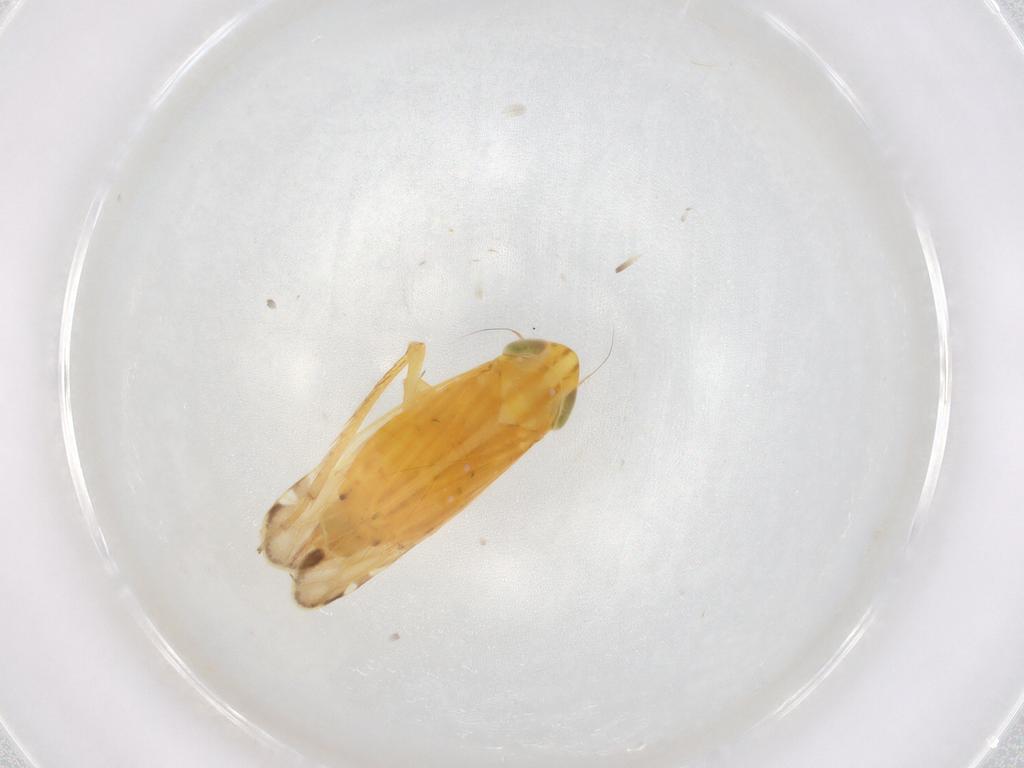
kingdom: Animalia
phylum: Arthropoda
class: Insecta
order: Hemiptera
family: Cicadellidae
